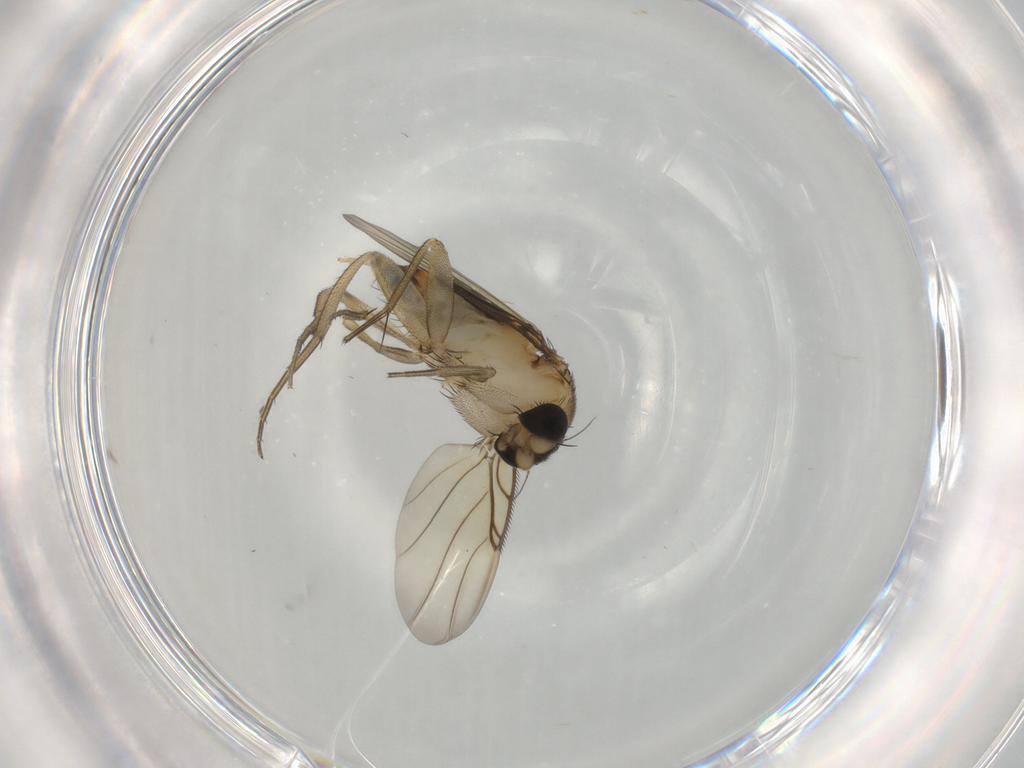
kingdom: Animalia
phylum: Arthropoda
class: Insecta
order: Diptera
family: Phoridae
